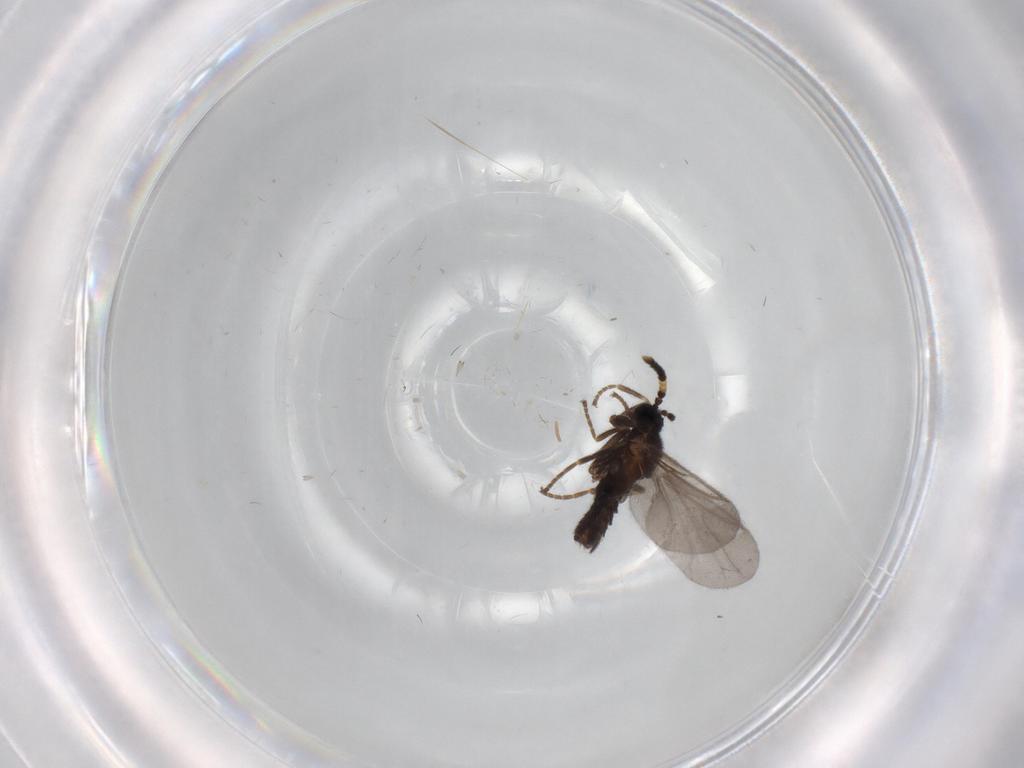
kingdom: Animalia
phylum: Arthropoda
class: Insecta
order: Diptera
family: Scatopsidae
